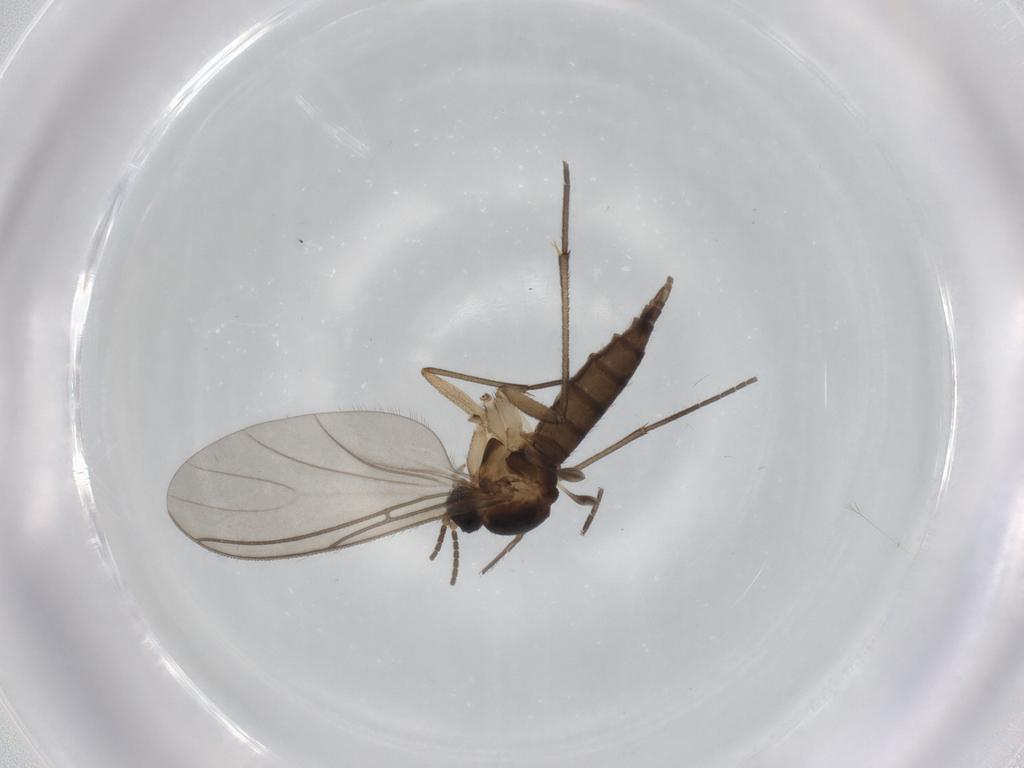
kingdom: Animalia
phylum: Arthropoda
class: Insecta
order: Diptera
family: Sciaridae
